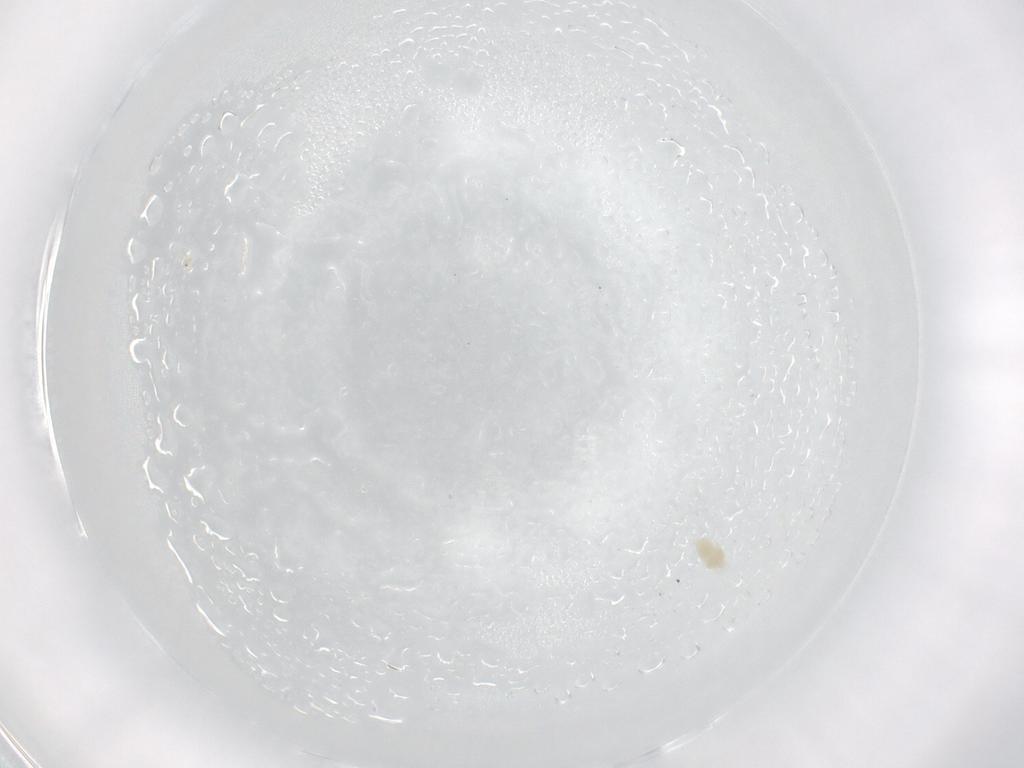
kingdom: Animalia
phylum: Arthropoda
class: Arachnida
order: Trombidiformes
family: Eupodidae
